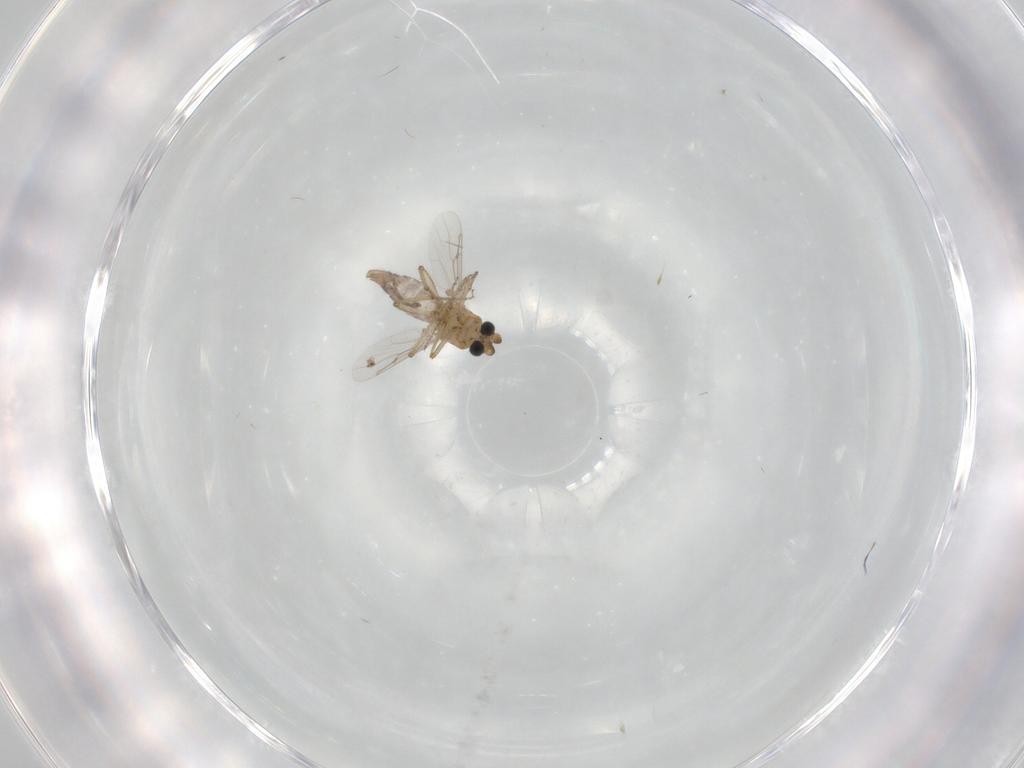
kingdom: Animalia
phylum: Arthropoda
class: Insecta
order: Diptera
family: Ceratopogonidae
